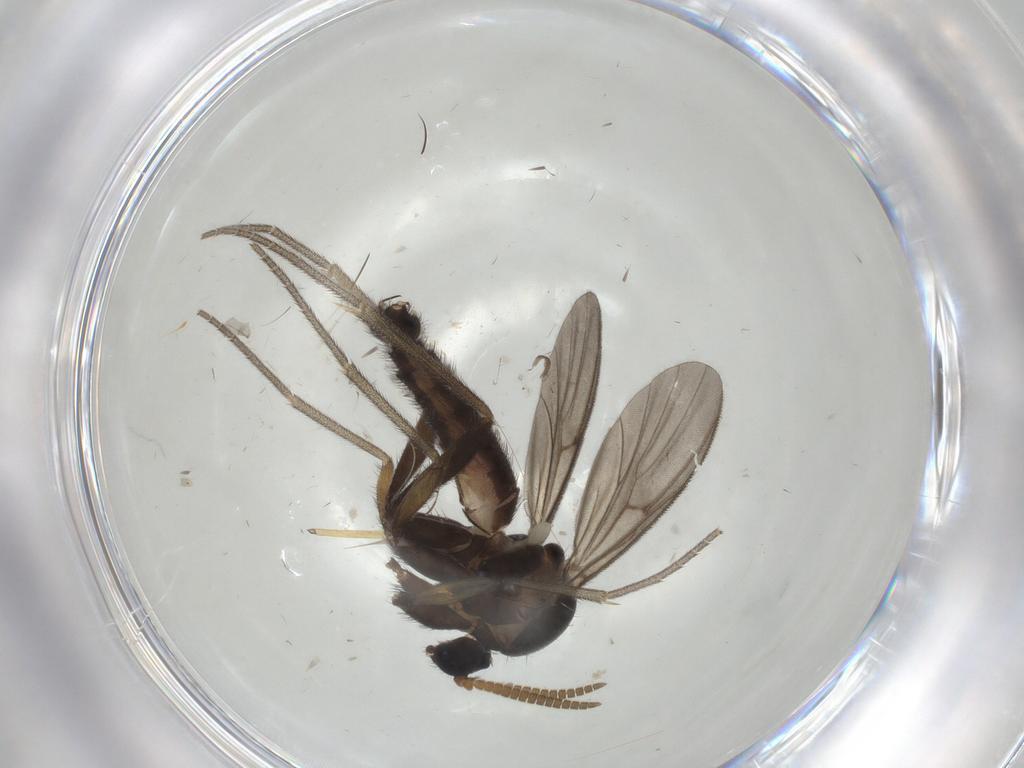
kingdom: Animalia
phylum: Arthropoda
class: Insecta
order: Diptera
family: Mycetophilidae
